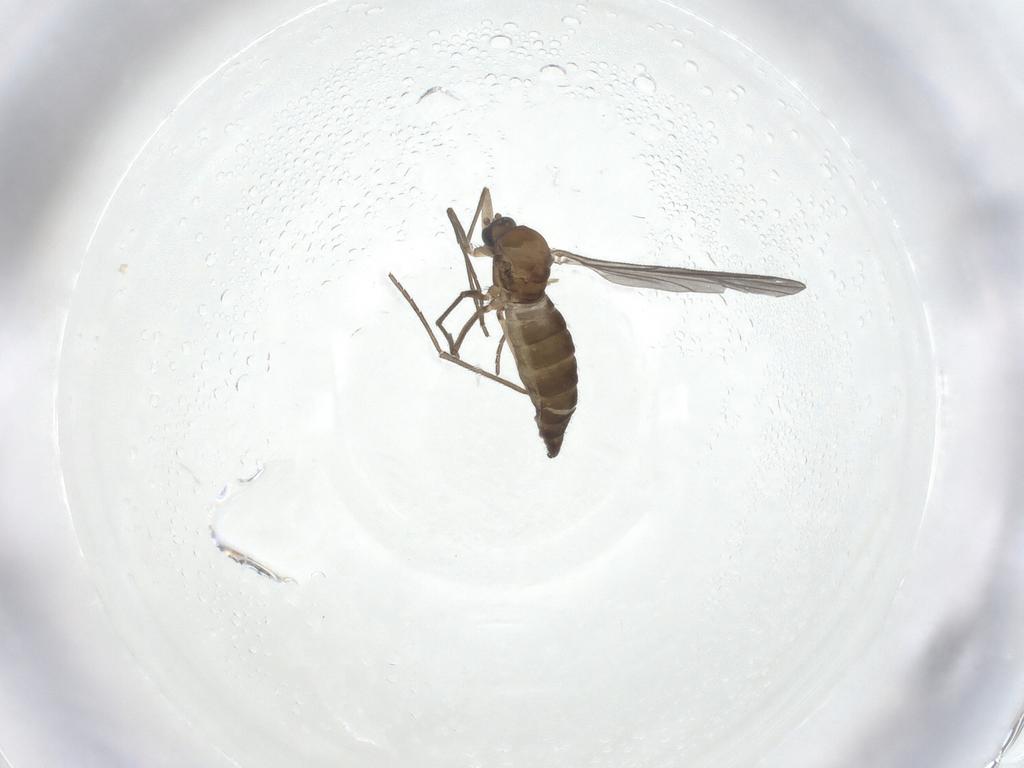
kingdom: Animalia
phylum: Arthropoda
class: Insecta
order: Diptera
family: Sciaridae
